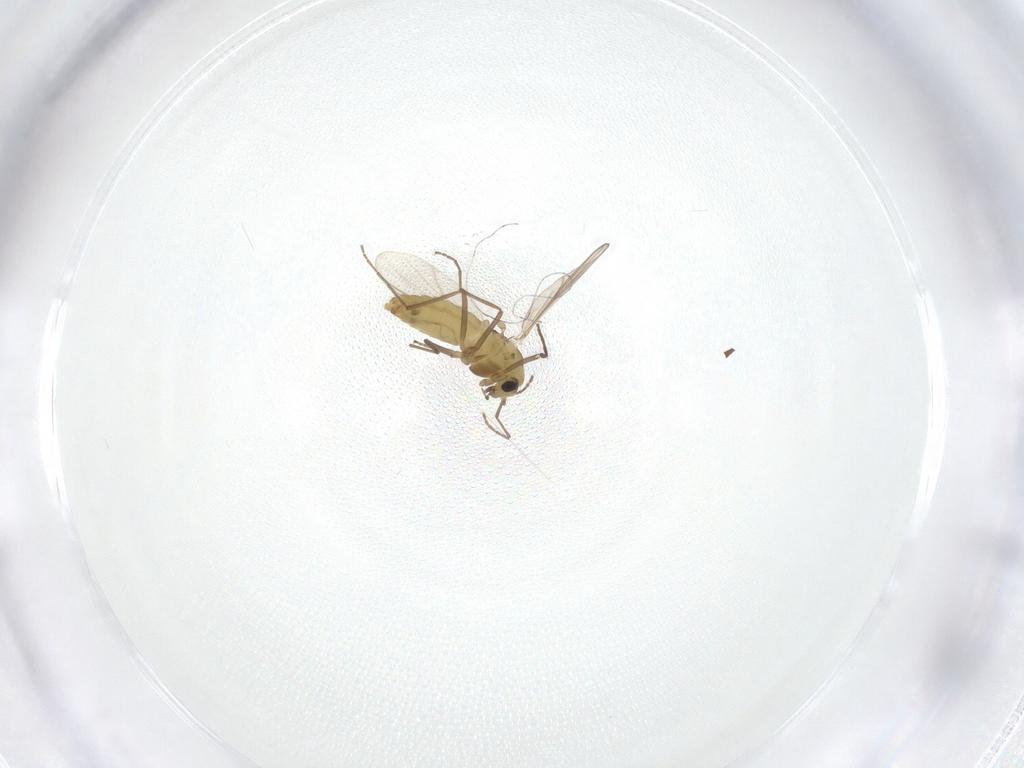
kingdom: Animalia
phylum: Arthropoda
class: Insecta
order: Diptera
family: Chironomidae
